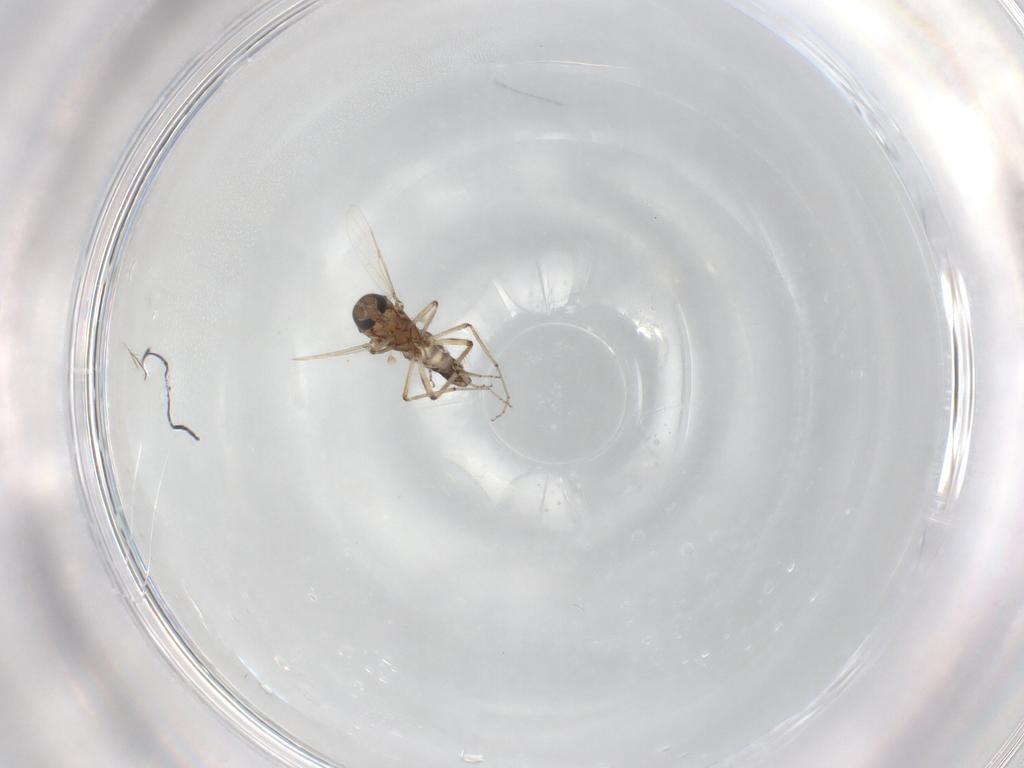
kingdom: Animalia
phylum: Arthropoda
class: Insecta
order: Diptera
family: Ceratopogonidae
